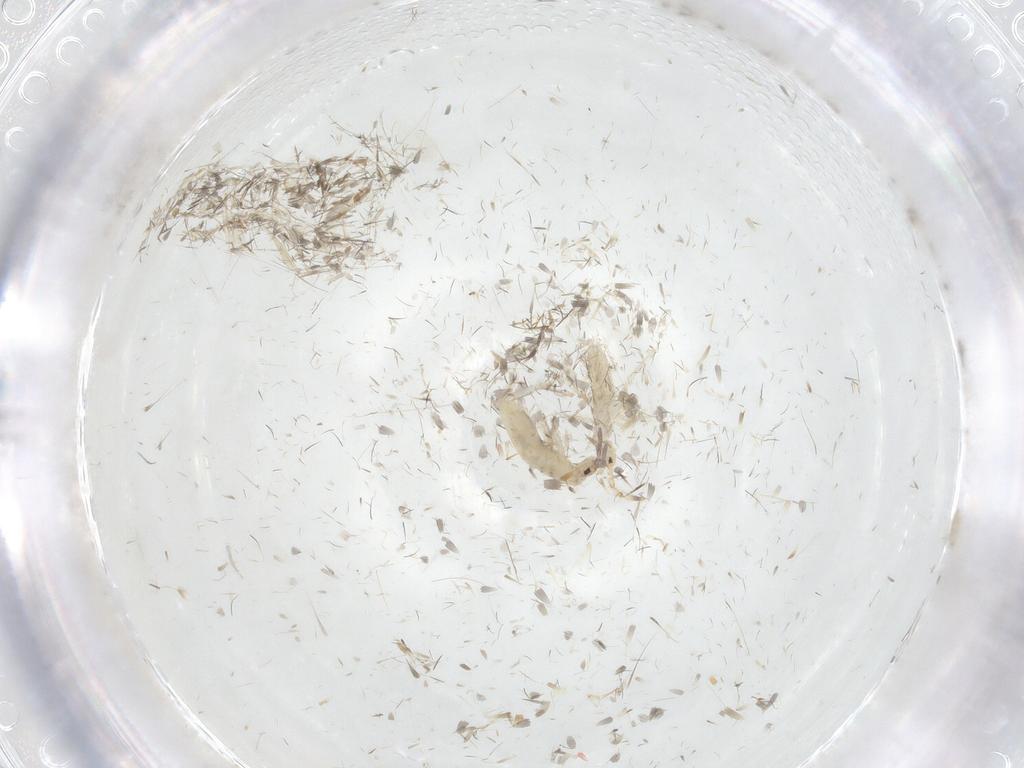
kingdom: Animalia
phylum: Arthropoda
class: Collembola
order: Entomobryomorpha
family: Entomobryidae
